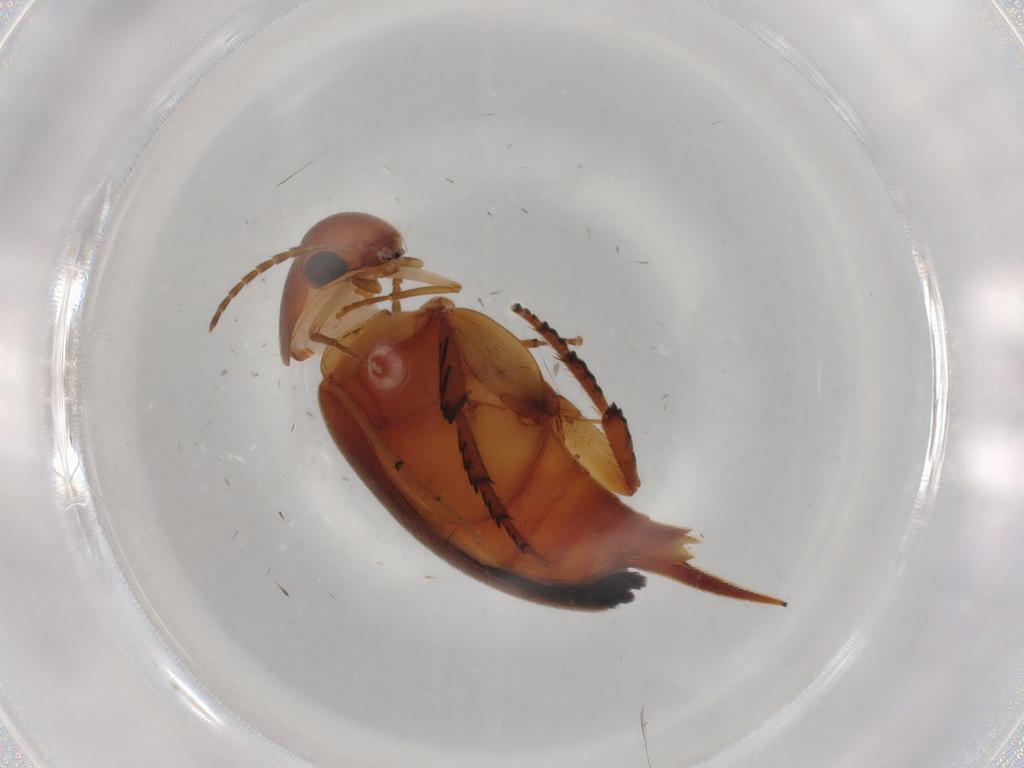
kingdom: Animalia
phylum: Arthropoda
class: Insecta
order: Coleoptera
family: Mordellidae
